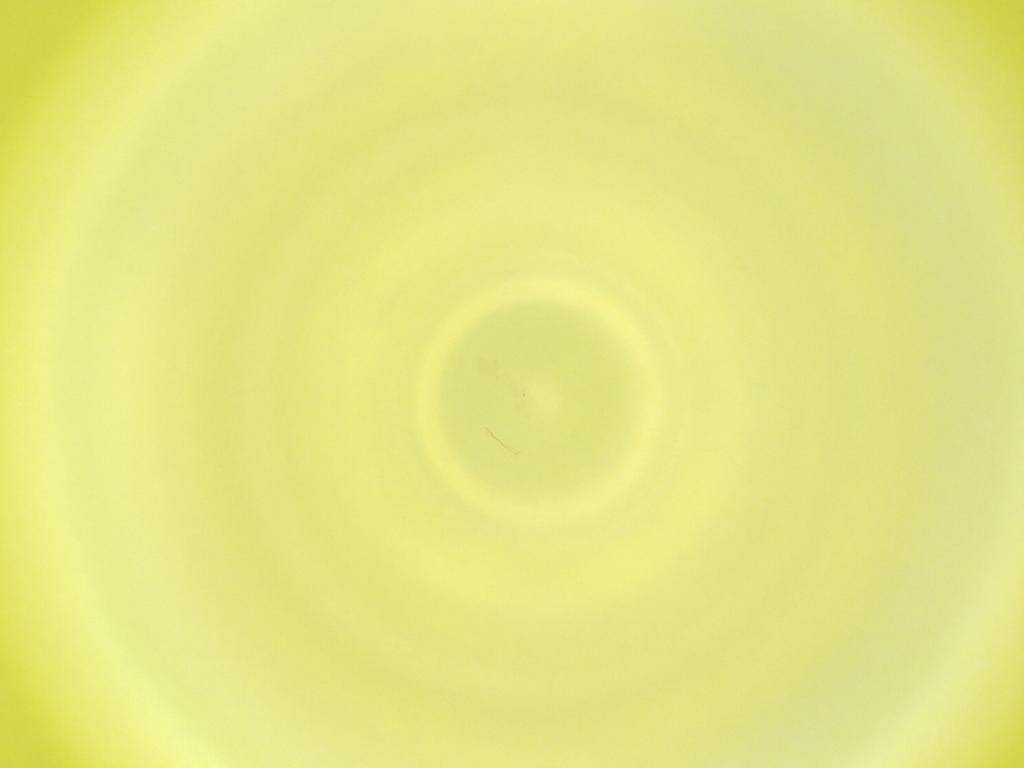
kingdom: Animalia
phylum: Arthropoda
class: Insecta
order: Diptera
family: Cecidomyiidae
